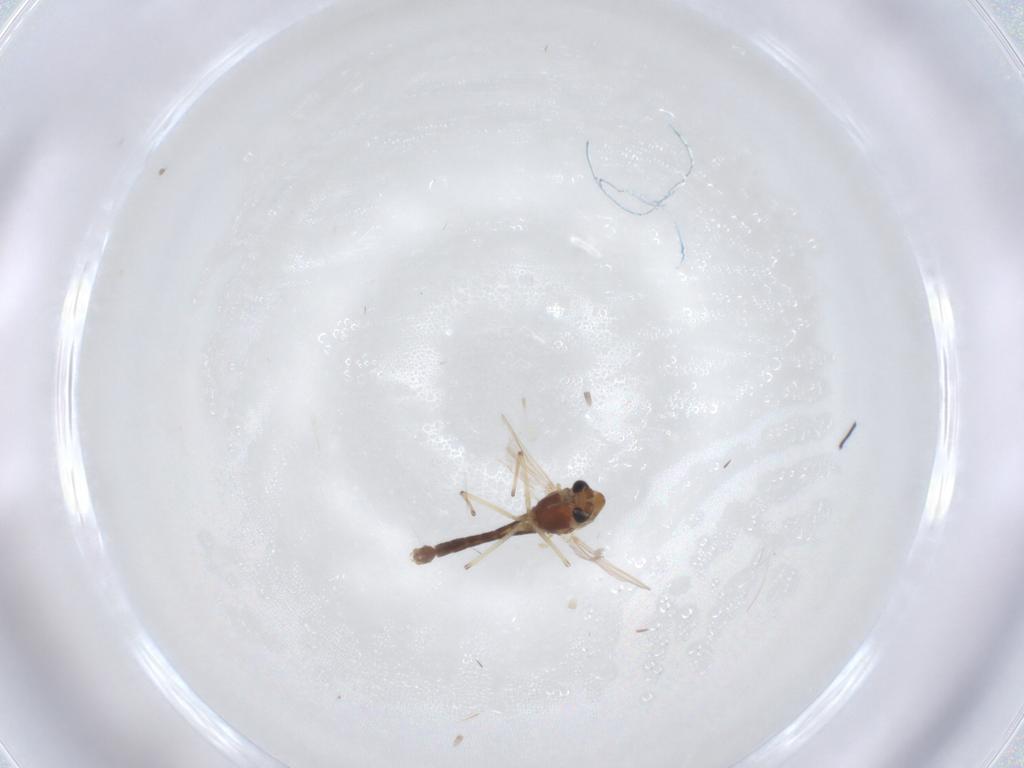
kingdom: Animalia
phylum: Arthropoda
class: Insecta
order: Diptera
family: Chironomidae
